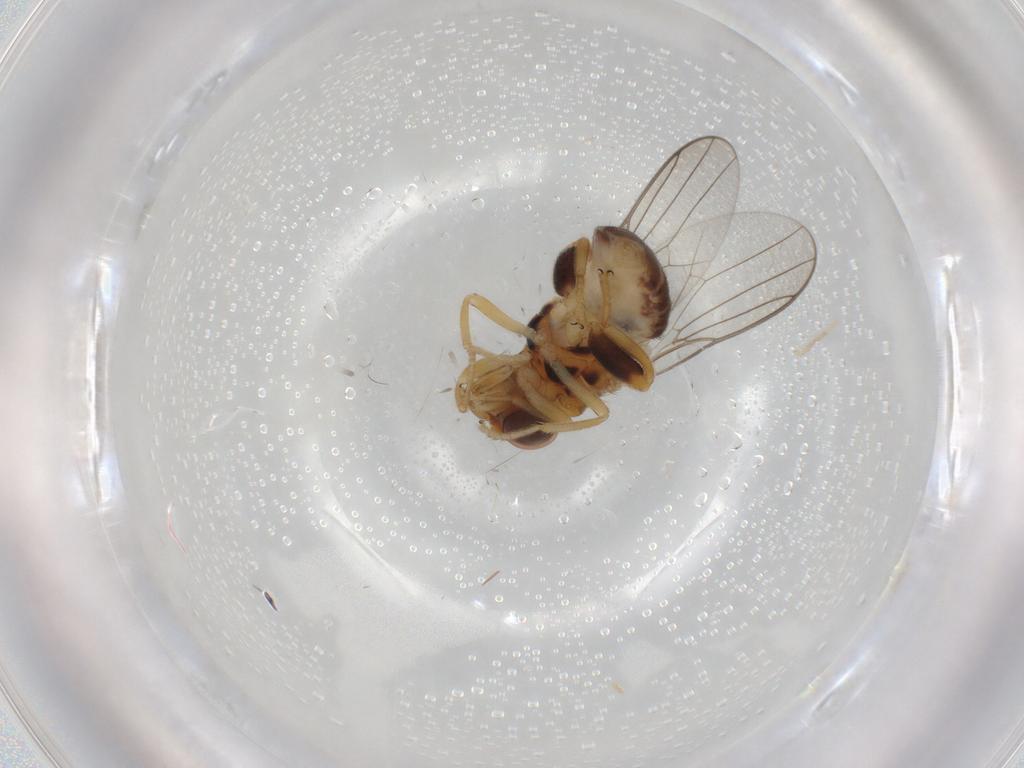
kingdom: Animalia
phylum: Arthropoda
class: Insecta
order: Diptera
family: Chloropidae
